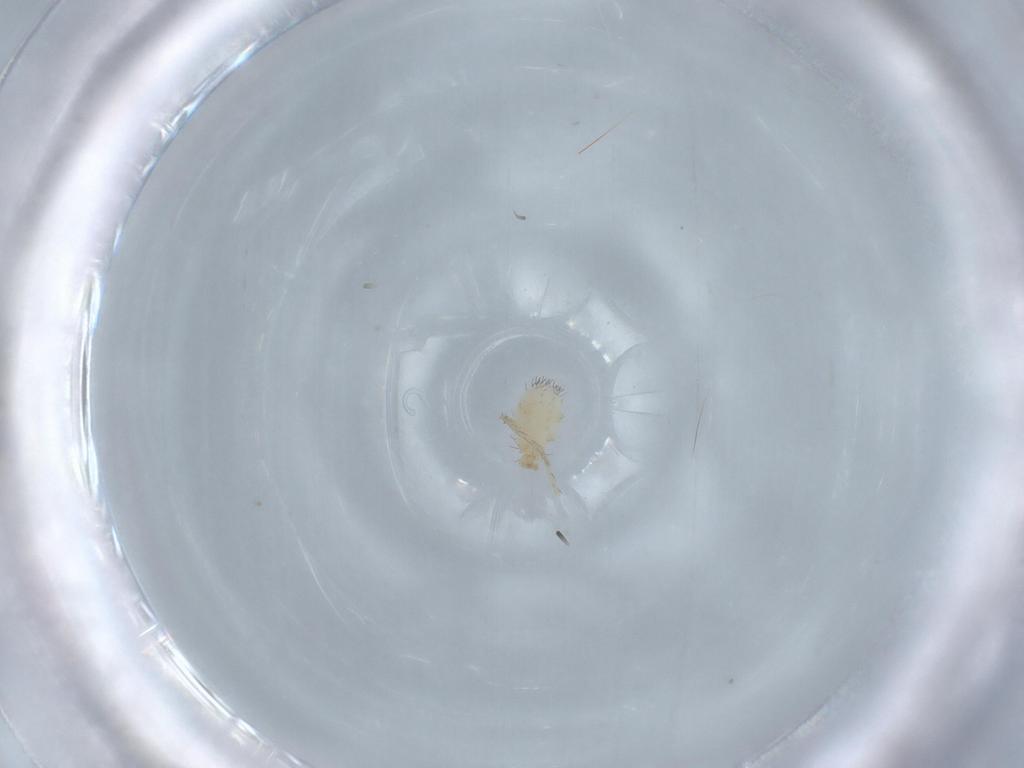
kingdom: Animalia
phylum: Arthropoda
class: Arachnida
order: Mesostigmata
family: Parasitidae
